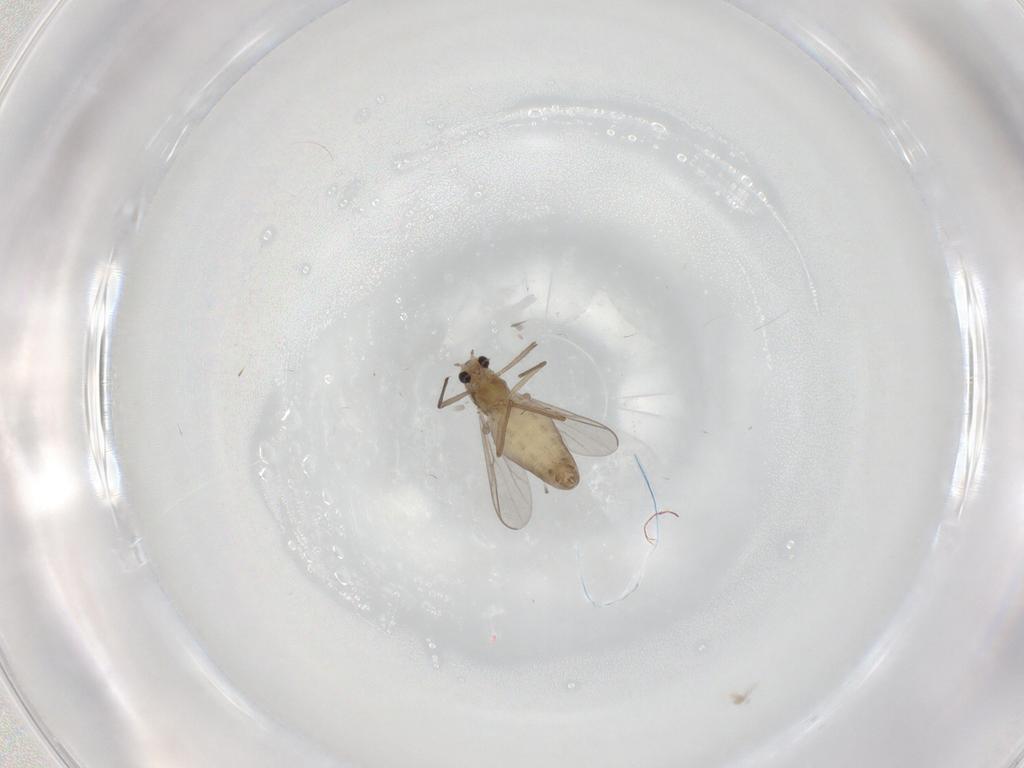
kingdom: Animalia
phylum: Arthropoda
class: Insecta
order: Diptera
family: Chironomidae
